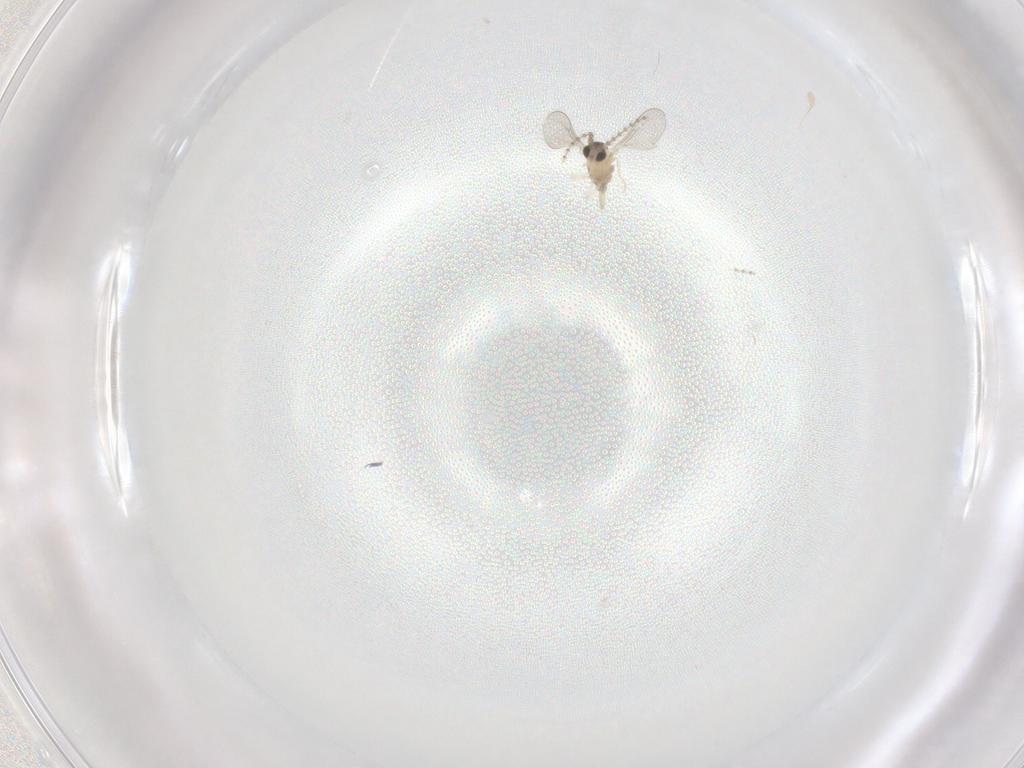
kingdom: Animalia
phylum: Arthropoda
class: Insecta
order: Diptera
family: Cecidomyiidae
